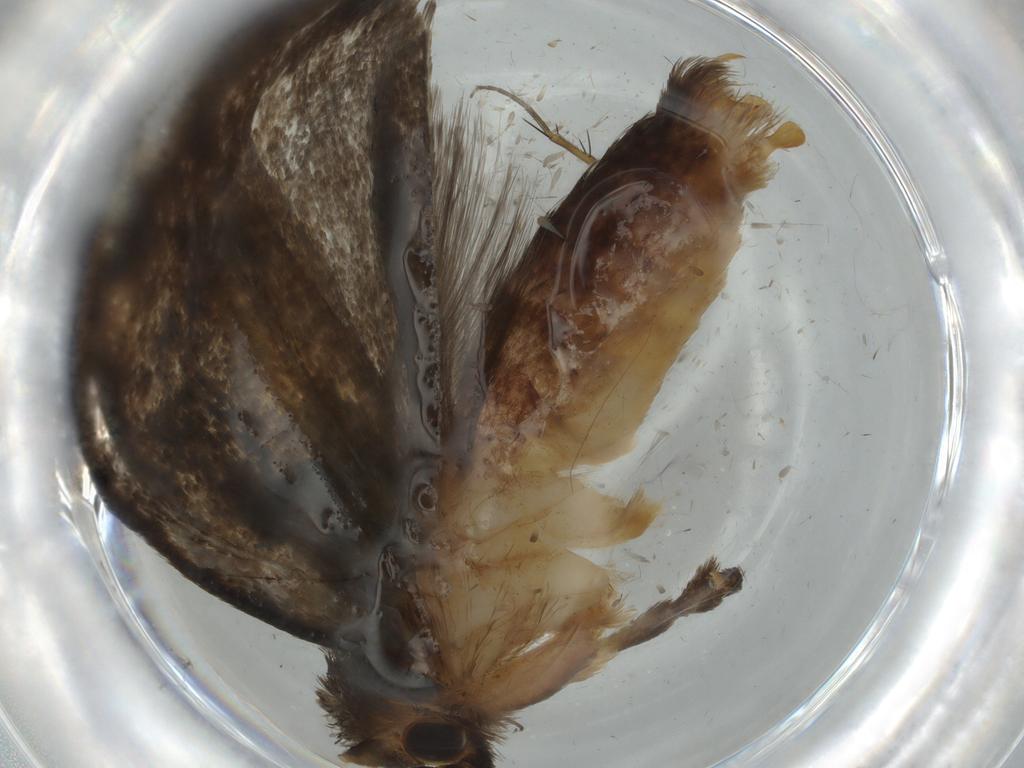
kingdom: Animalia
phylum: Arthropoda
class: Insecta
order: Lepidoptera
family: Tineidae
